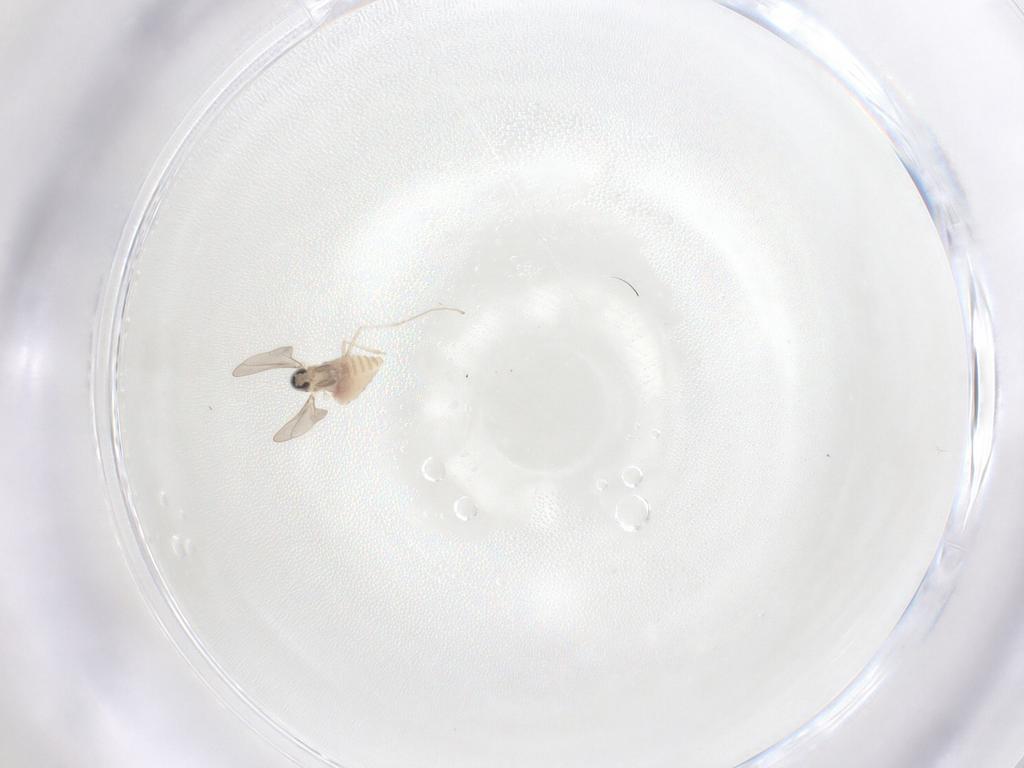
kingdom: Animalia
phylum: Arthropoda
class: Insecta
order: Diptera
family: Cecidomyiidae
